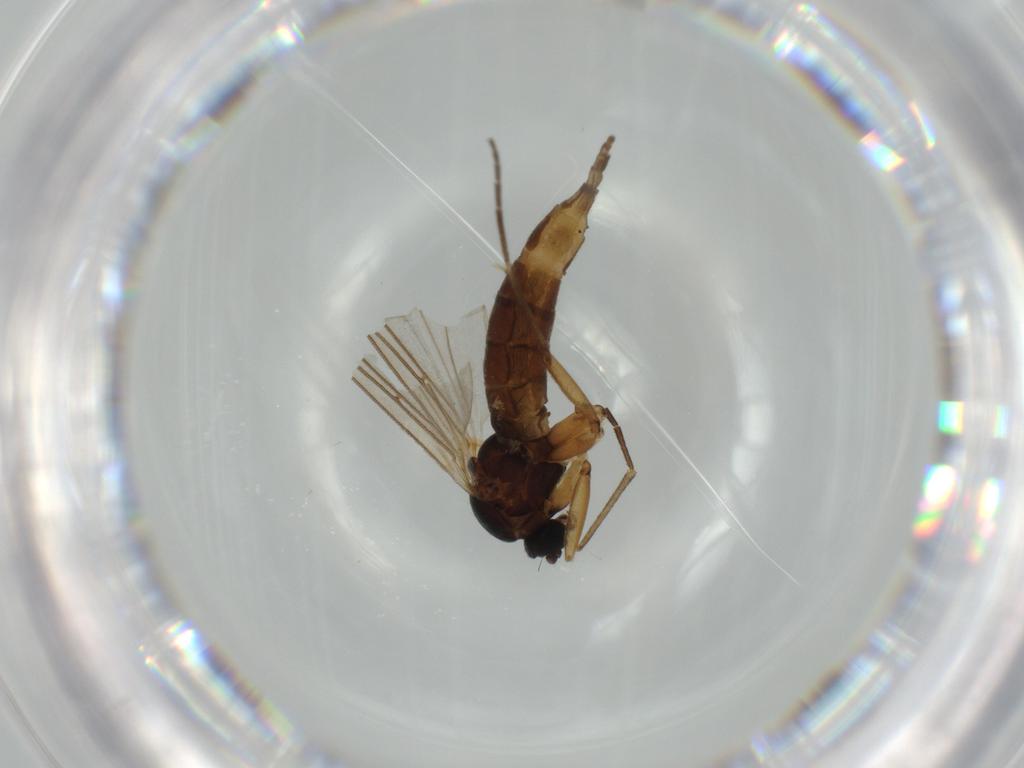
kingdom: Animalia
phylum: Arthropoda
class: Insecta
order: Diptera
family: Sciaridae
